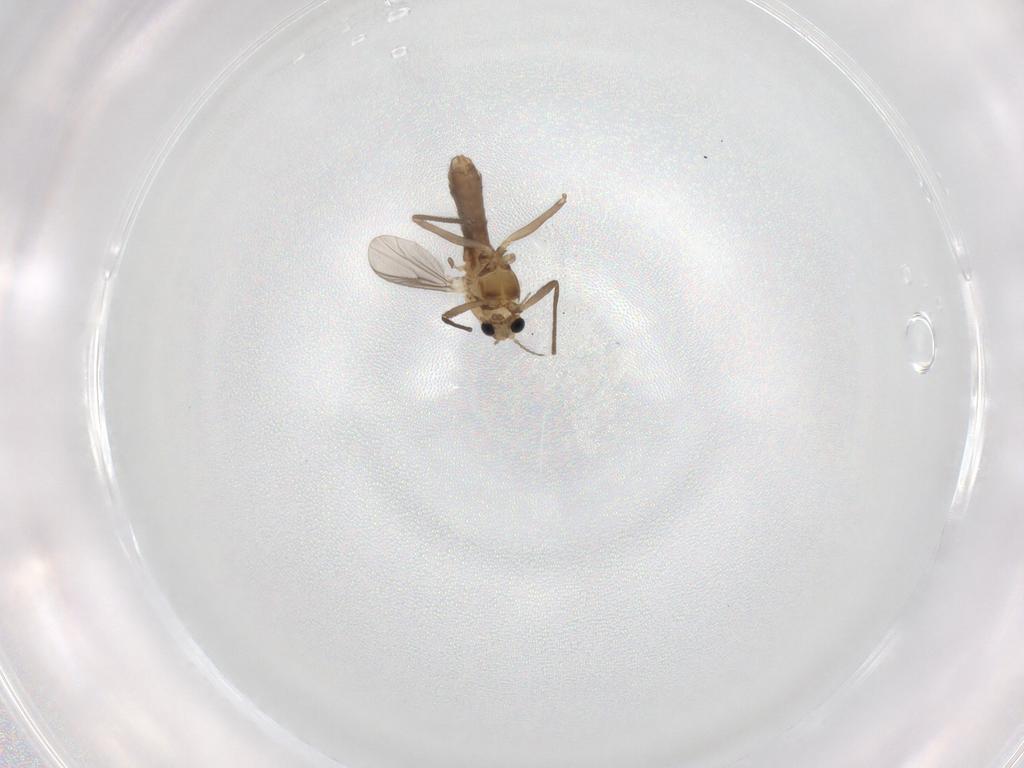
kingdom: Animalia
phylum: Arthropoda
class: Insecta
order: Diptera
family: Chironomidae
